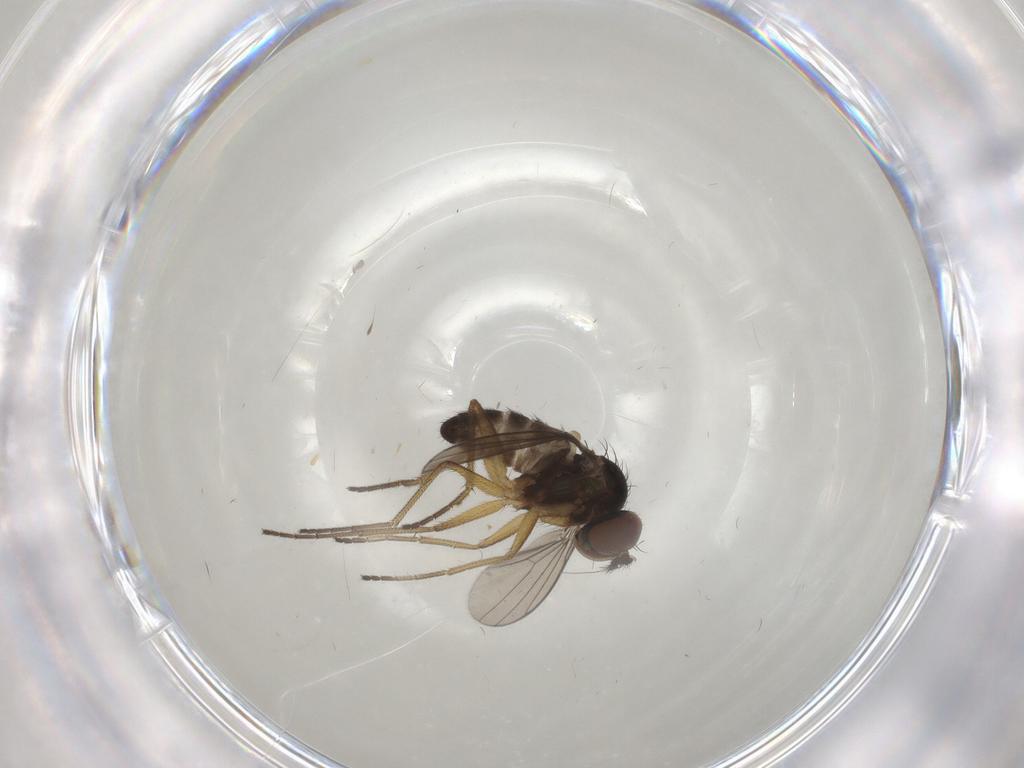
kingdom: Animalia
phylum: Arthropoda
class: Insecta
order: Diptera
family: Dolichopodidae
